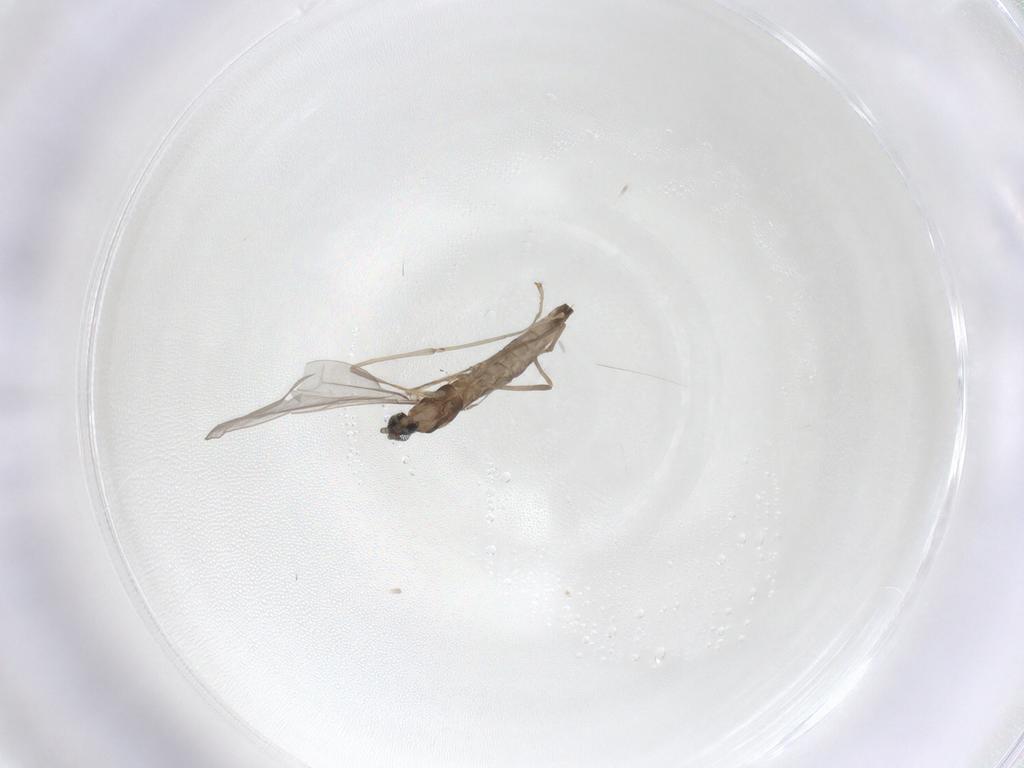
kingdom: Animalia
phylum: Arthropoda
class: Insecta
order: Diptera
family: Cecidomyiidae
